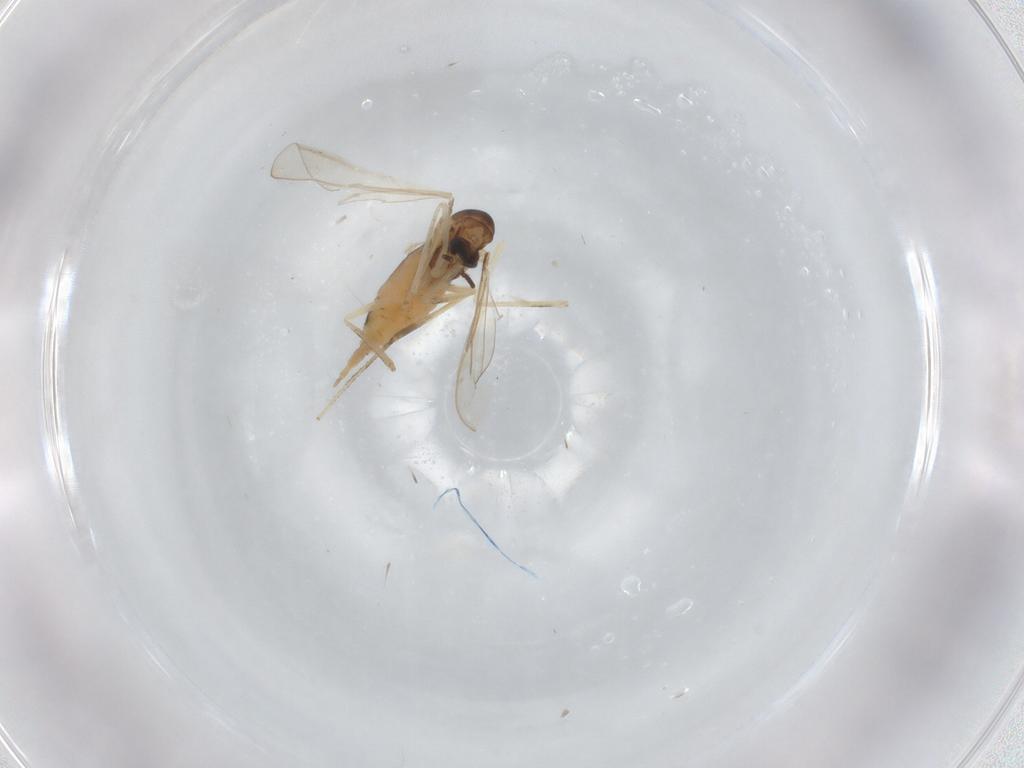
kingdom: Animalia
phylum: Arthropoda
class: Insecta
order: Diptera
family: Cecidomyiidae
